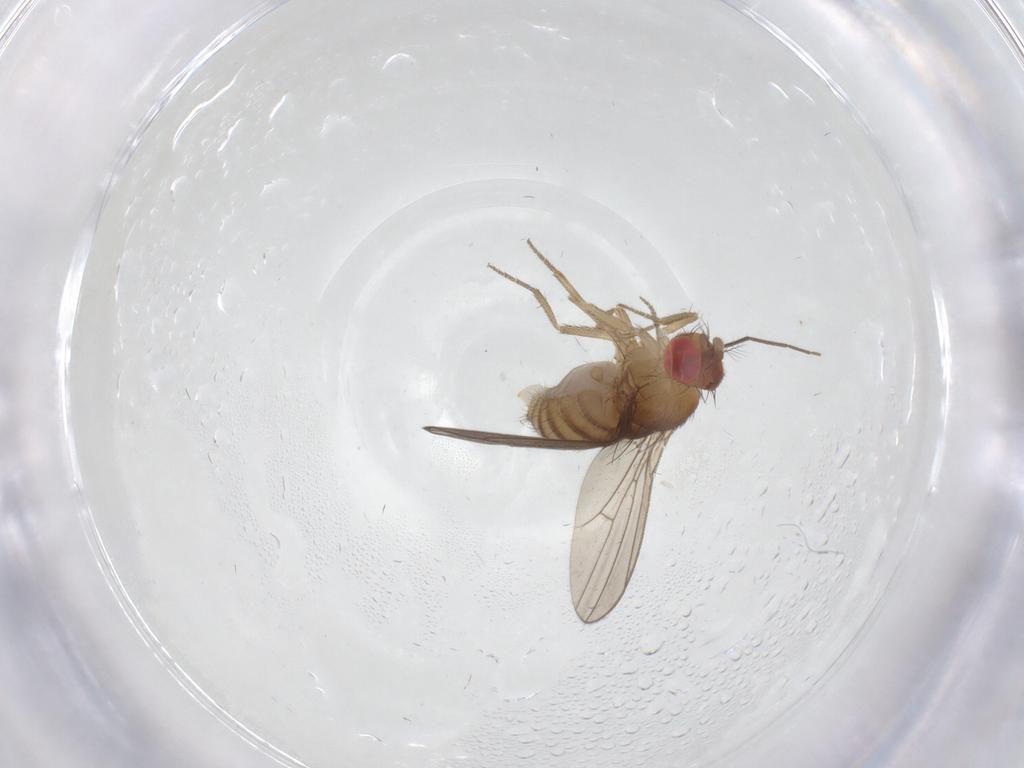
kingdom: Animalia
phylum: Arthropoda
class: Insecta
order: Diptera
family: Drosophilidae
